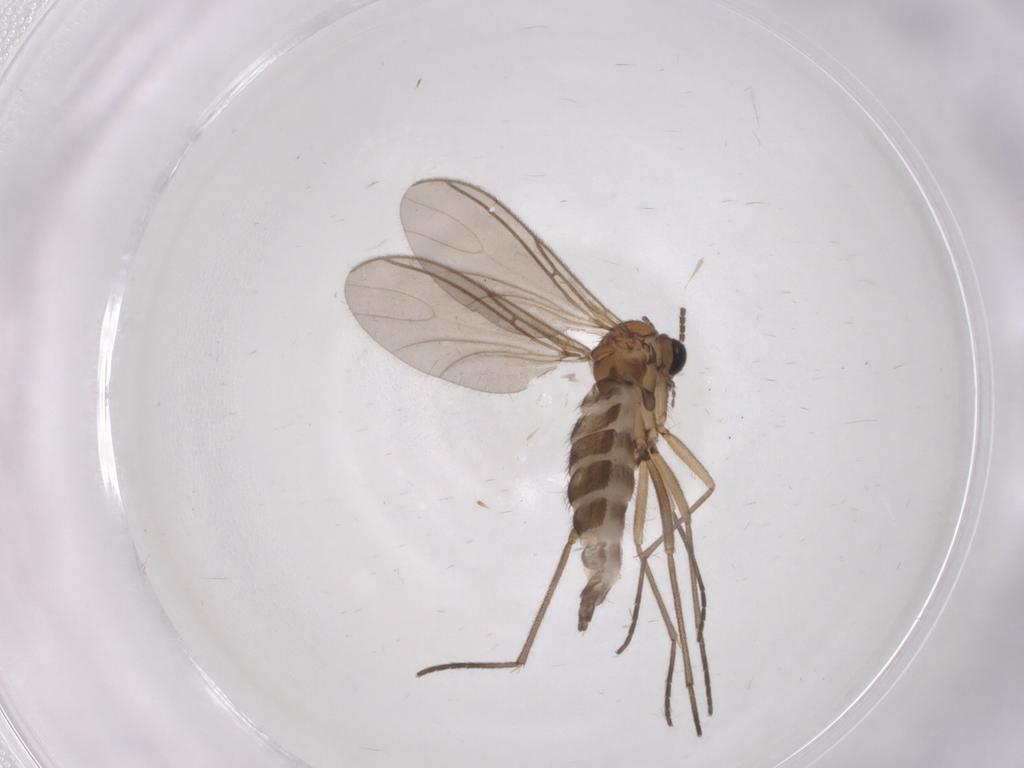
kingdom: Animalia
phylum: Arthropoda
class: Insecta
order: Diptera
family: Sciaridae
